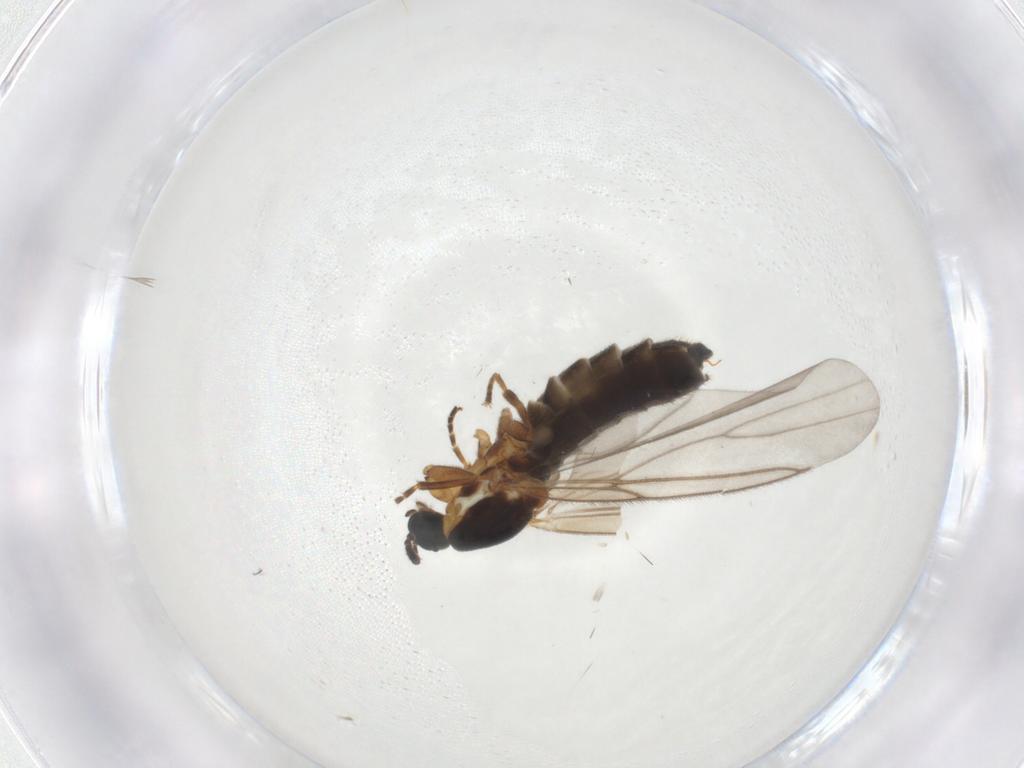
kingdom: Animalia
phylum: Arthropoda
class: Insecta
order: Diptera
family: Scatopsidae
